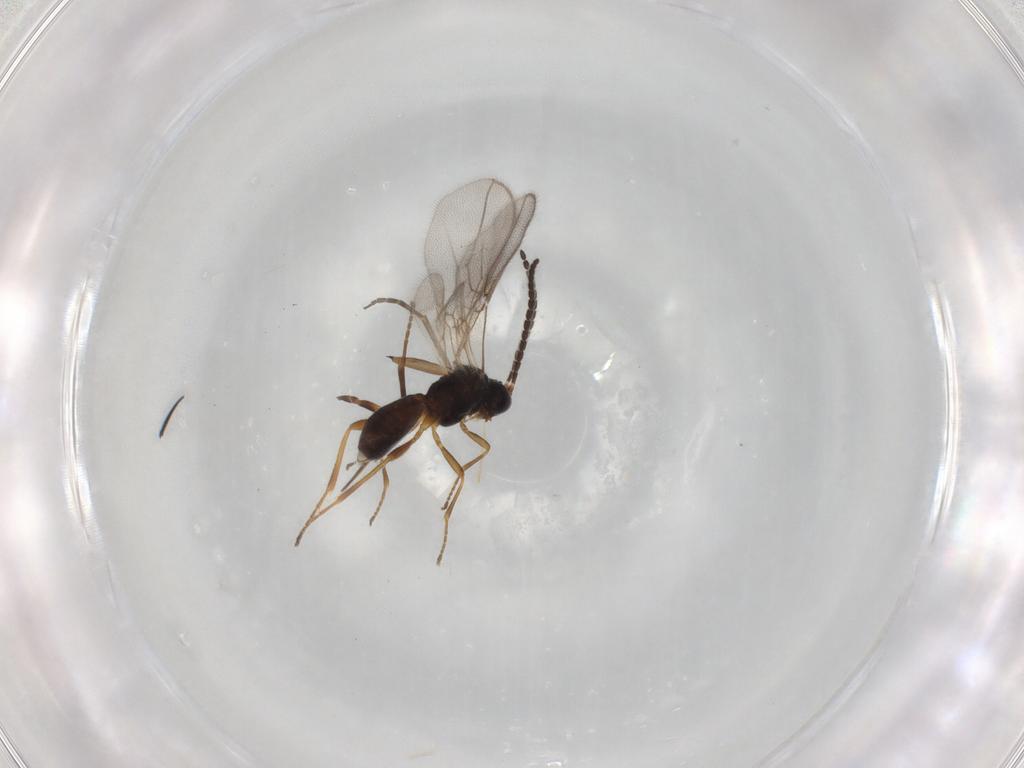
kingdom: Animalia
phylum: Arthropoda
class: Insecta
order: Hymenoptera
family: Braconidae
